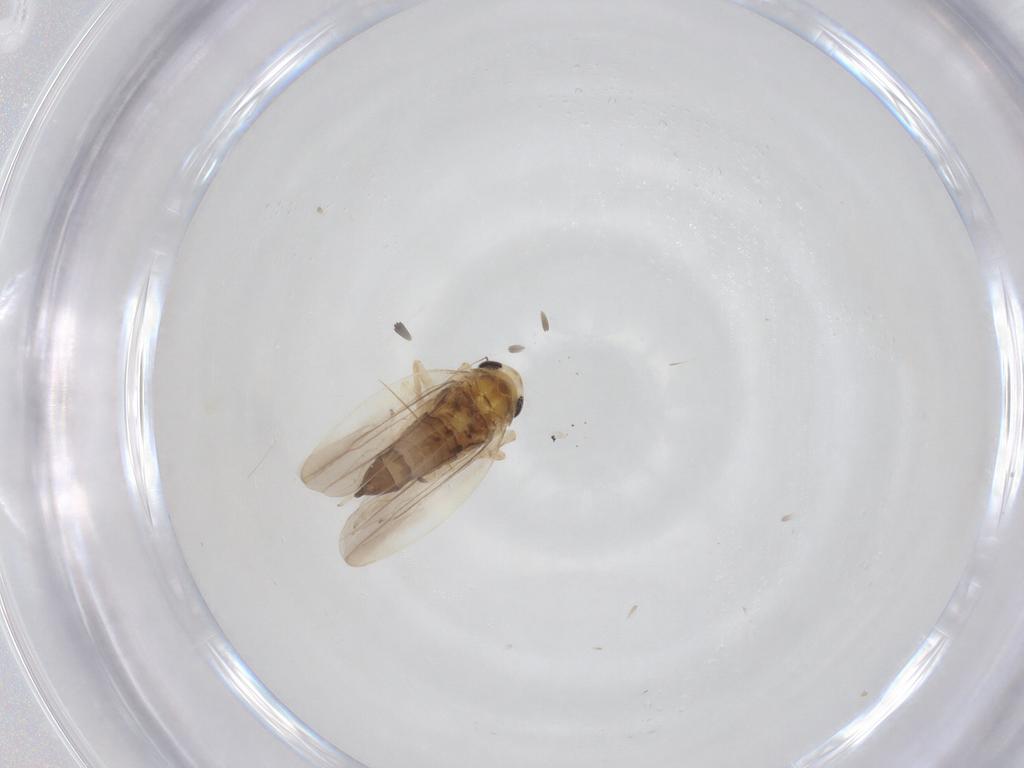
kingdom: Animalia
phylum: Arthropoda
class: Insecta
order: Hemiptera
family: Cicadellidae
